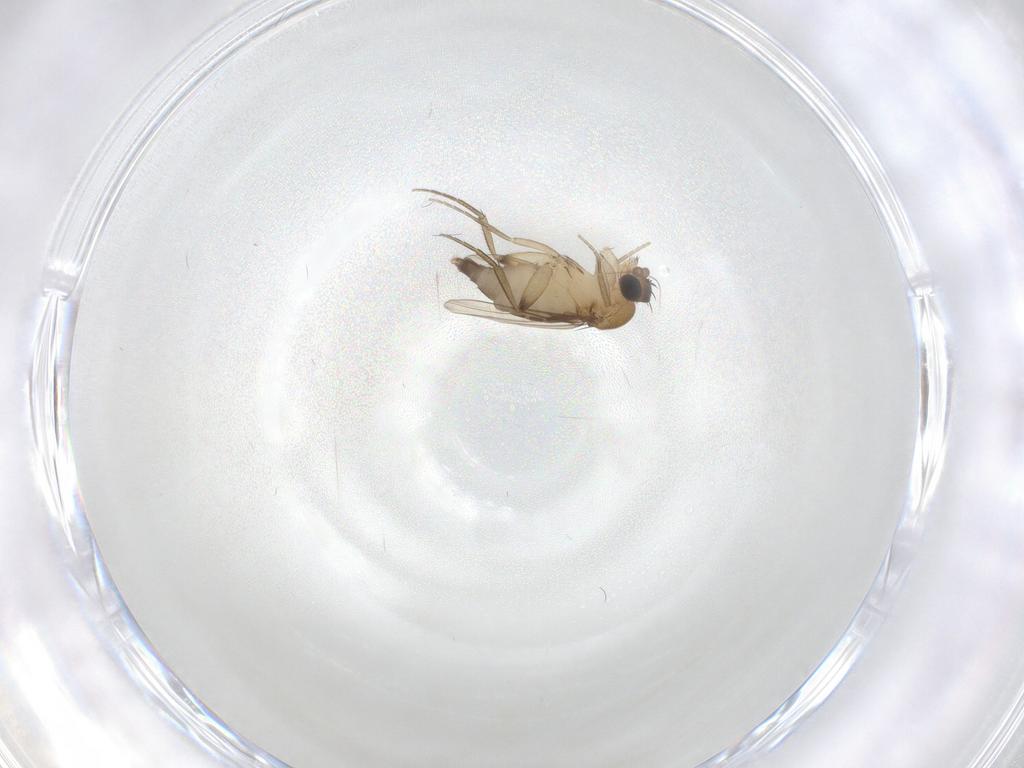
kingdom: Animalia
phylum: Arthropoda
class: Insecta
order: Diptera
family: Phoridae
